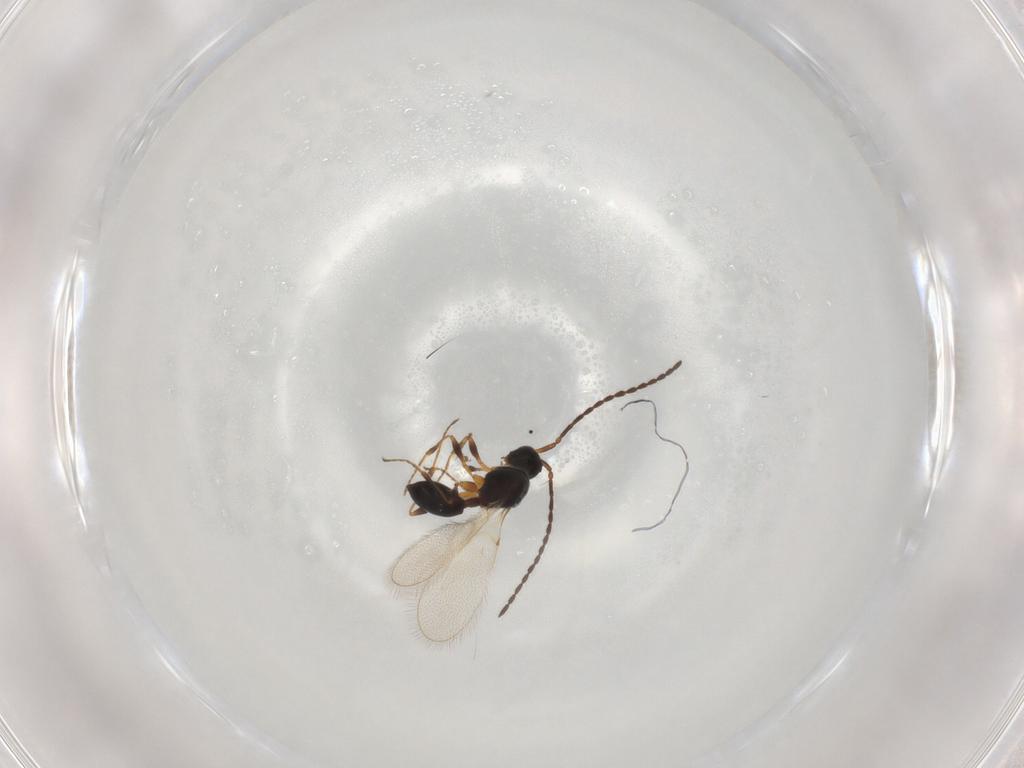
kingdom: Animalia
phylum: Arthropoda
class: Insecta
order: Hymenoptera
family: Diapriidae
